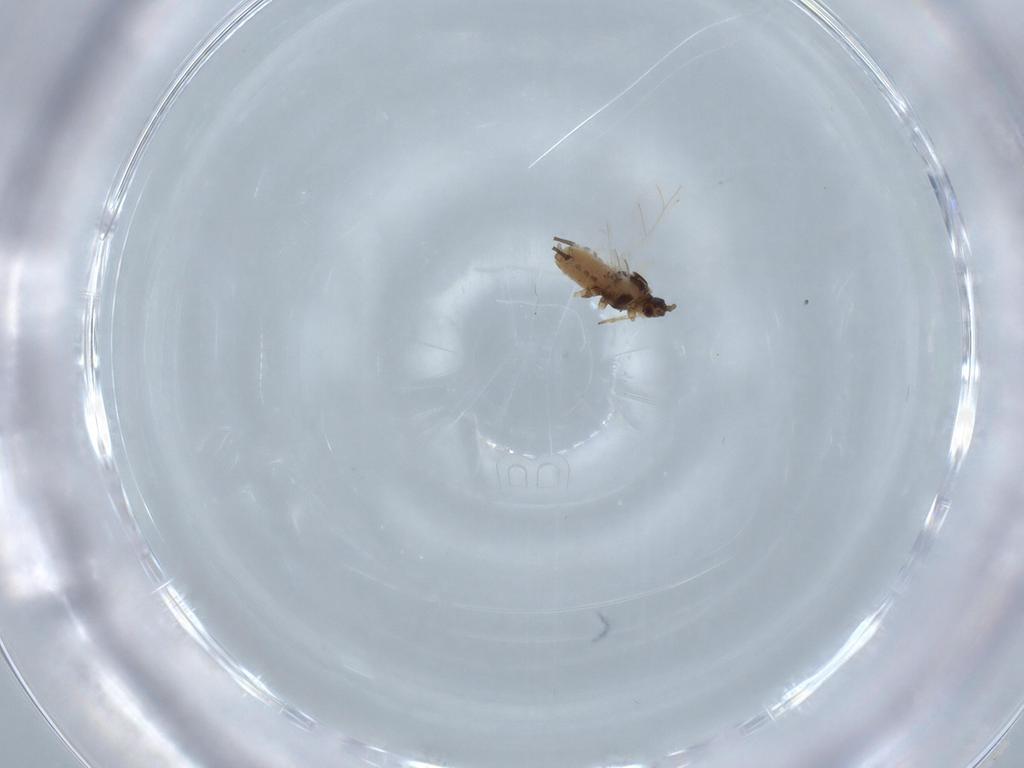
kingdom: Animalia
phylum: Arthropoda
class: Insecta
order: Hemiptera
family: Aphididae
